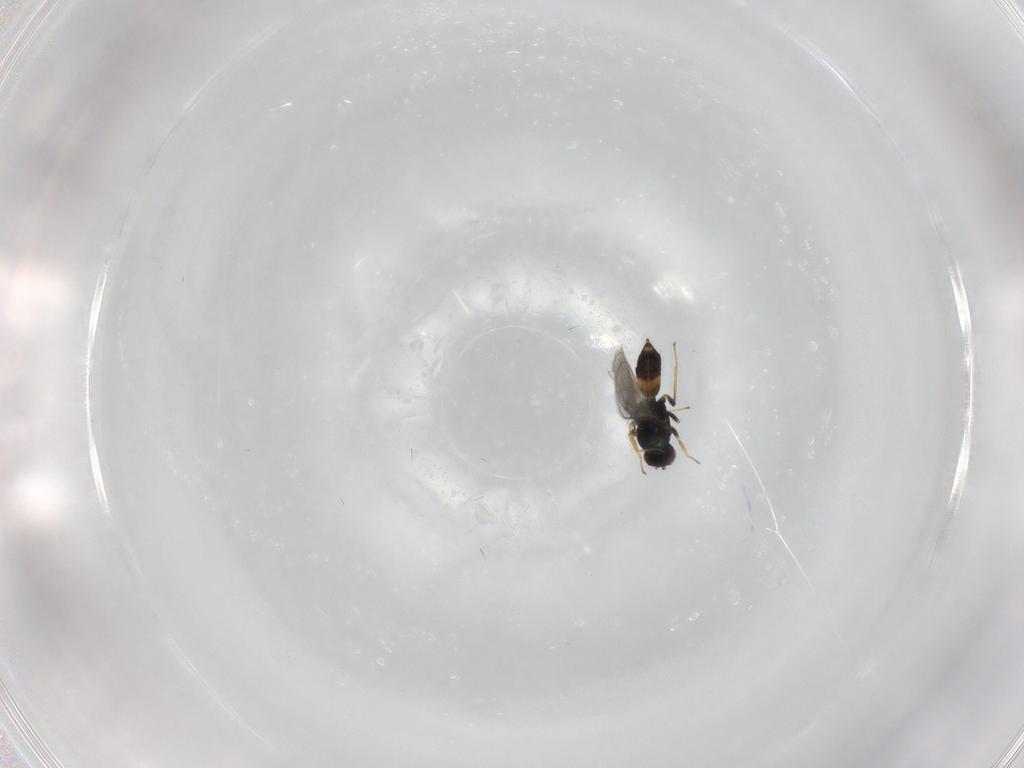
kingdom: Animalia
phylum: Arthropoda
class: Insecta
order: Hymenoptera
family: Eulophidae
